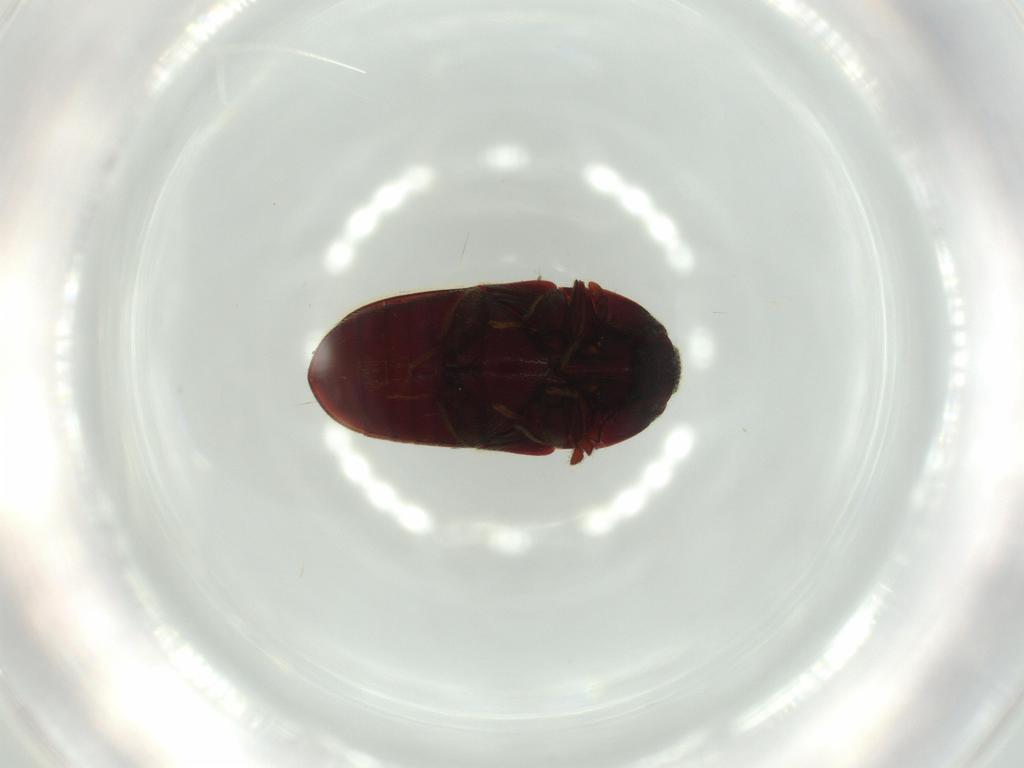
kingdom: Animalia
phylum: Arthropoda
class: Insecta
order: Coleoptera
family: Throscidae
